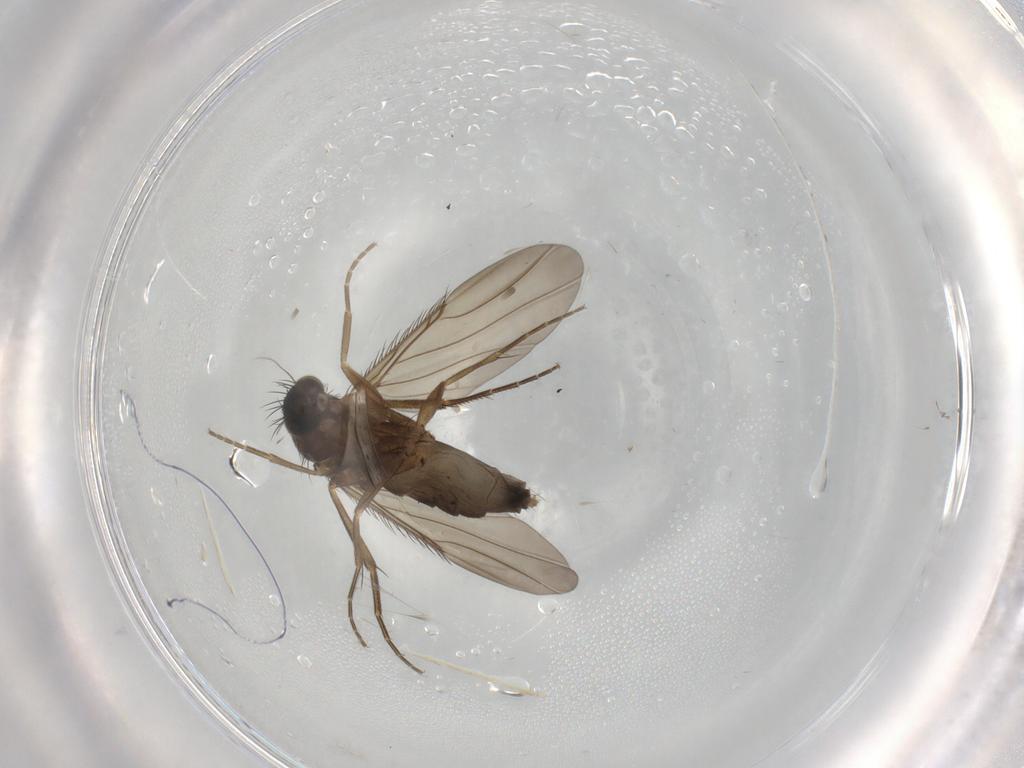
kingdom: Animalia
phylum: Arthropoda
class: Insecta
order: Diptera
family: Phoridae
